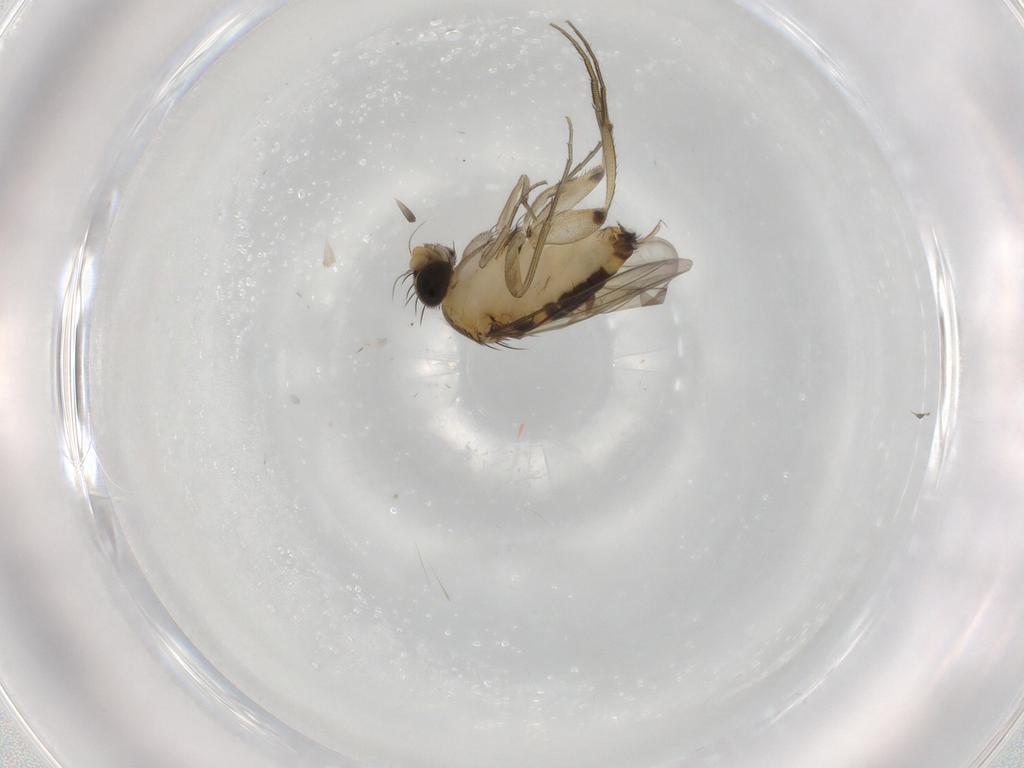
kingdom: Animalia
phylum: Arthropoda
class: Insecta
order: Diptera
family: Phoridae
